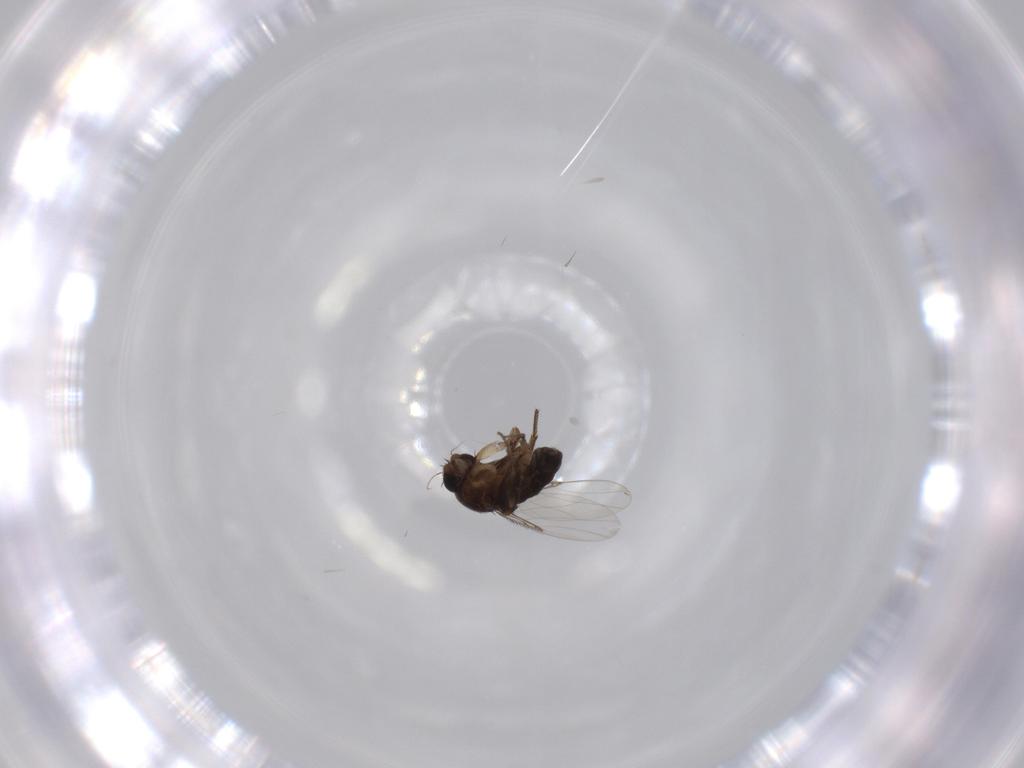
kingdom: Animalia
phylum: Arthropoda
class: Insecta
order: Diptera
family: Phoridae
